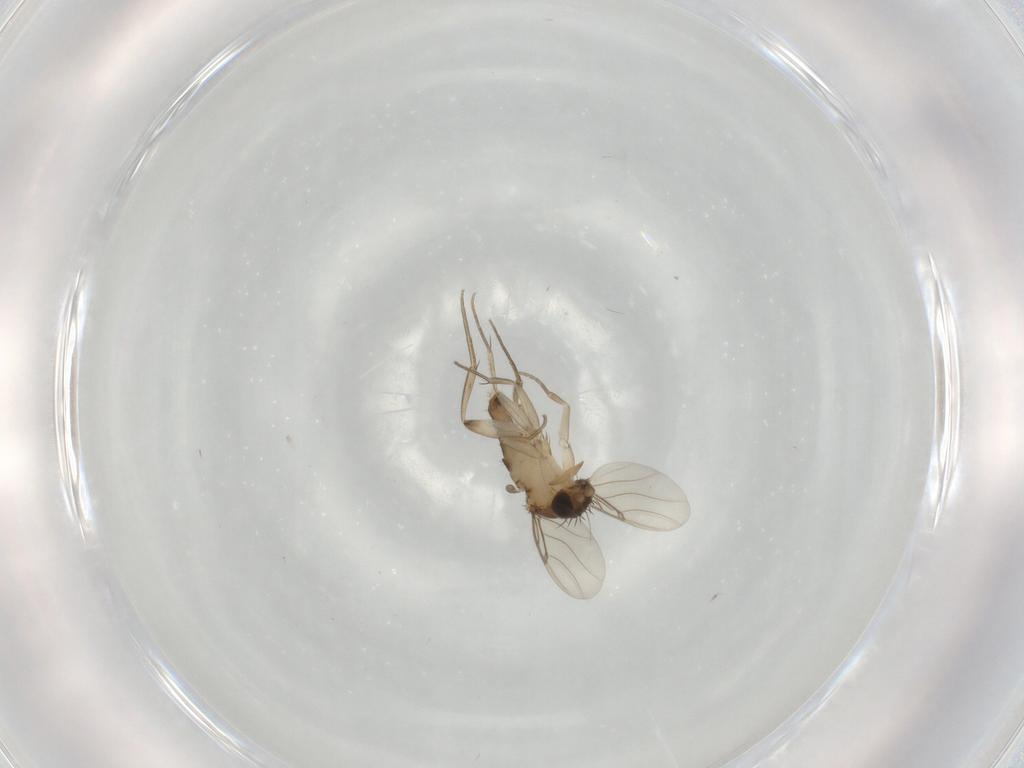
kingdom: Animalia
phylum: Arthropoda
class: Insecta
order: Diptera
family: Phoridae
